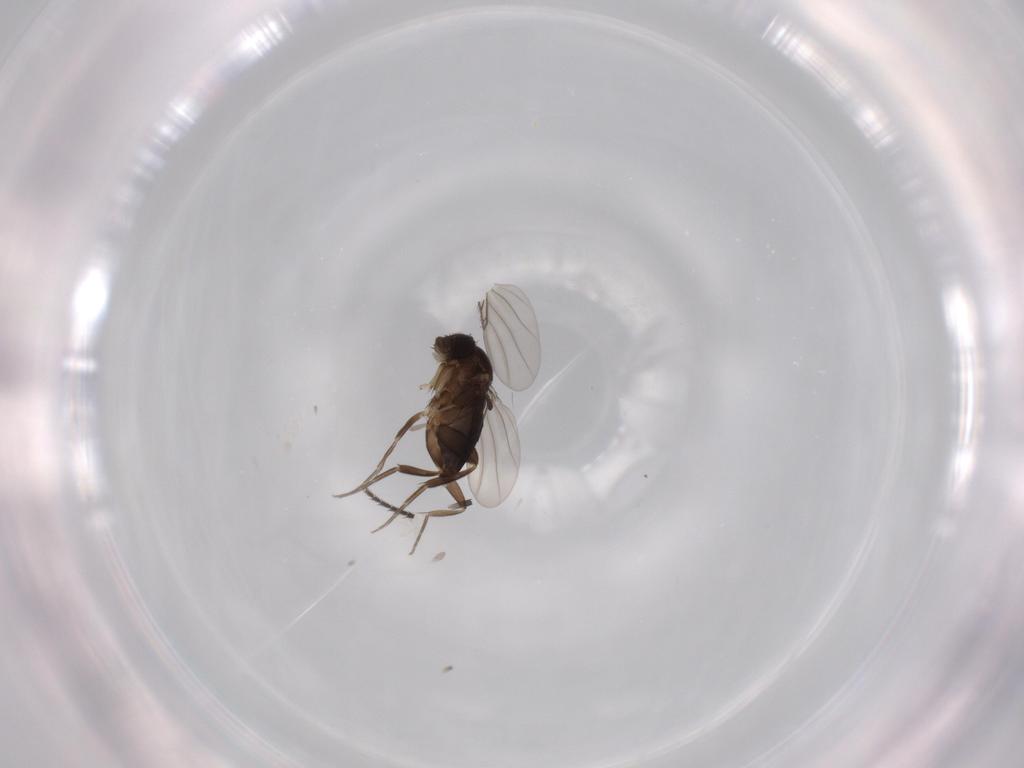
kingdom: Animalia
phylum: Arthropoda
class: Insecta
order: Diptera
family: Phoridae
